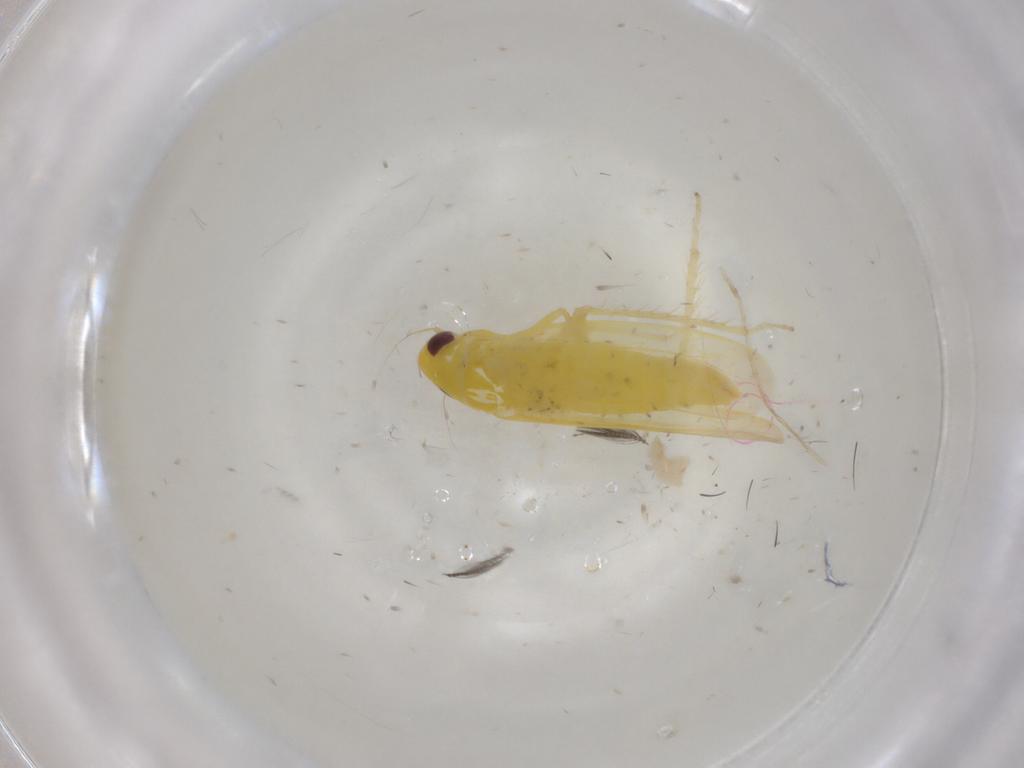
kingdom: Animalia
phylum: Arthropoda
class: Insecta
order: Hemiptera
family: Cicadellidae
